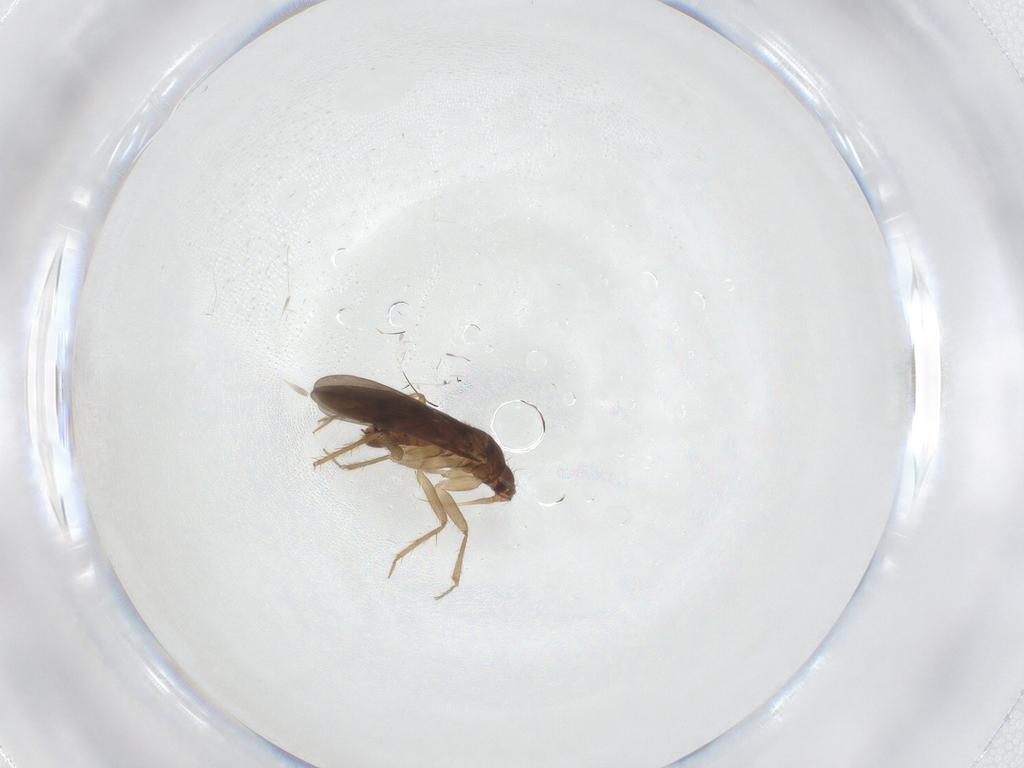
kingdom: Animalia
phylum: Arthropoda
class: Insecta
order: Hemiptera
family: Ceratocombidae
